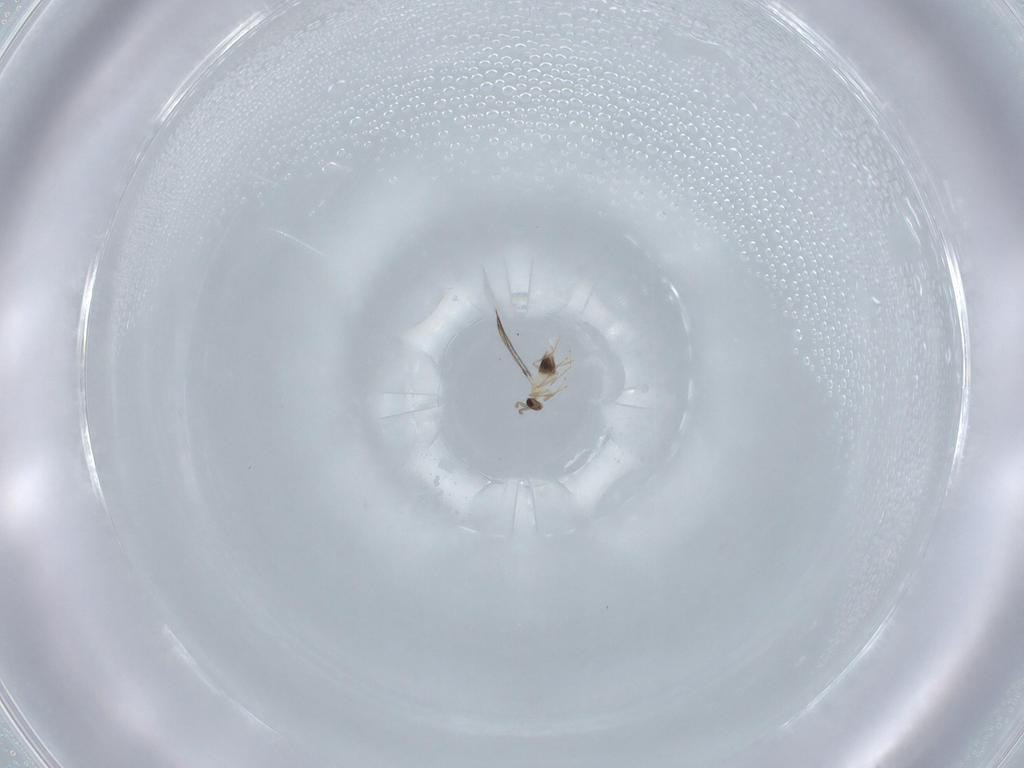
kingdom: Animalia
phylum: Arthropoda
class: Insecta
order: Hymenoptera
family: Mymaridae
